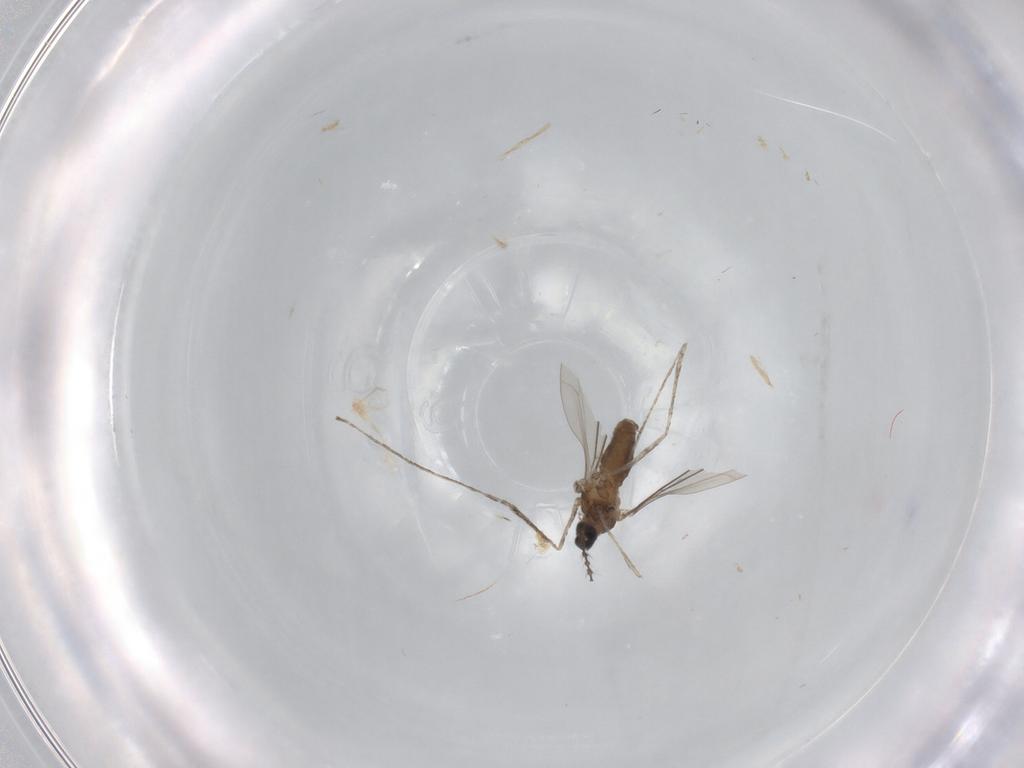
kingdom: Animalia
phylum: Arthropoda
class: Insecta
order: Diptera
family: Cecidomyiidae
